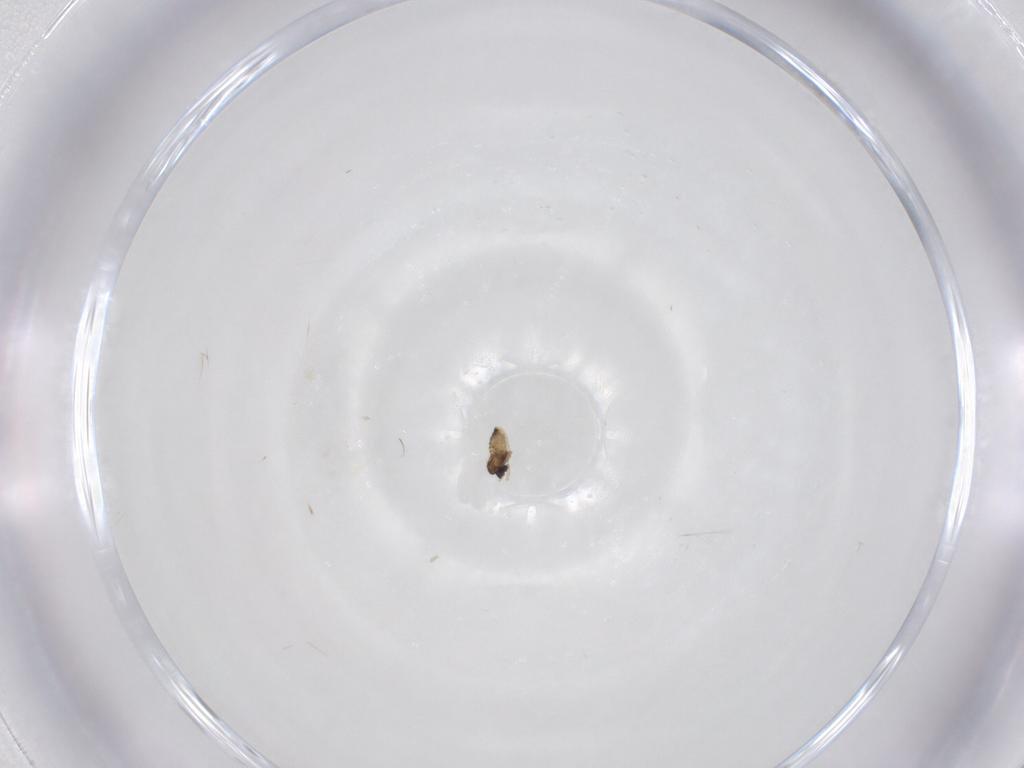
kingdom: Animalia
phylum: Arthropoda
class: Insecta
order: Diptera
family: Cecidomyiidae
